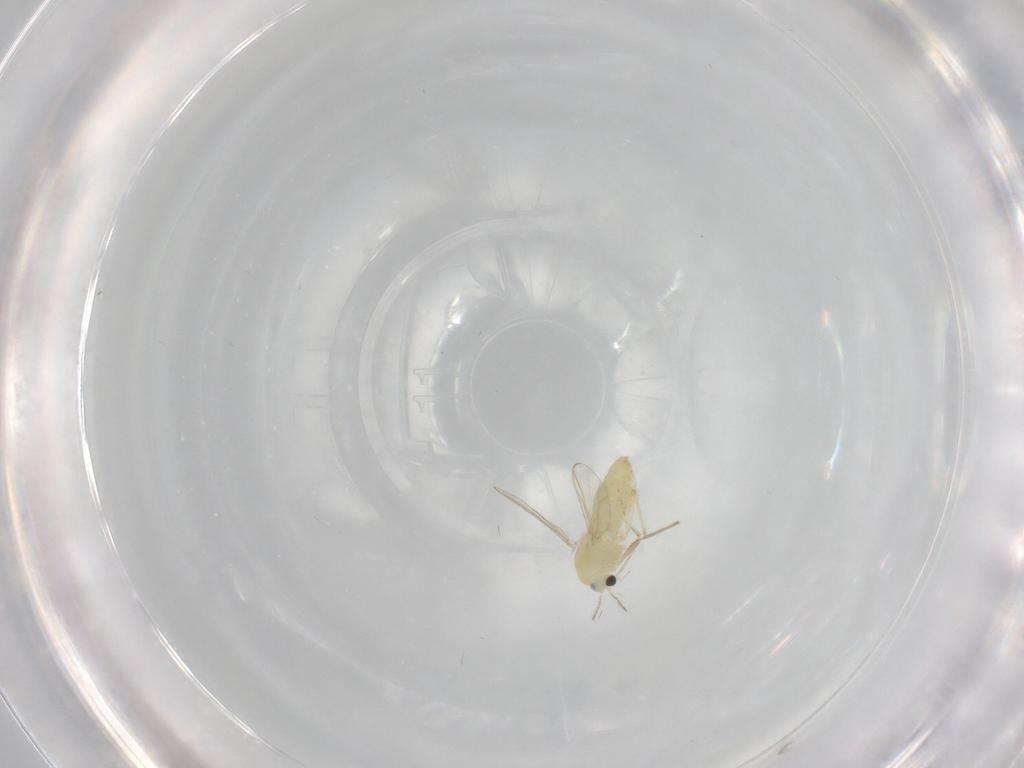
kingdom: Animalia
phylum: Arthropoda
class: Insecta
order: Diptera
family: Chironomidae
